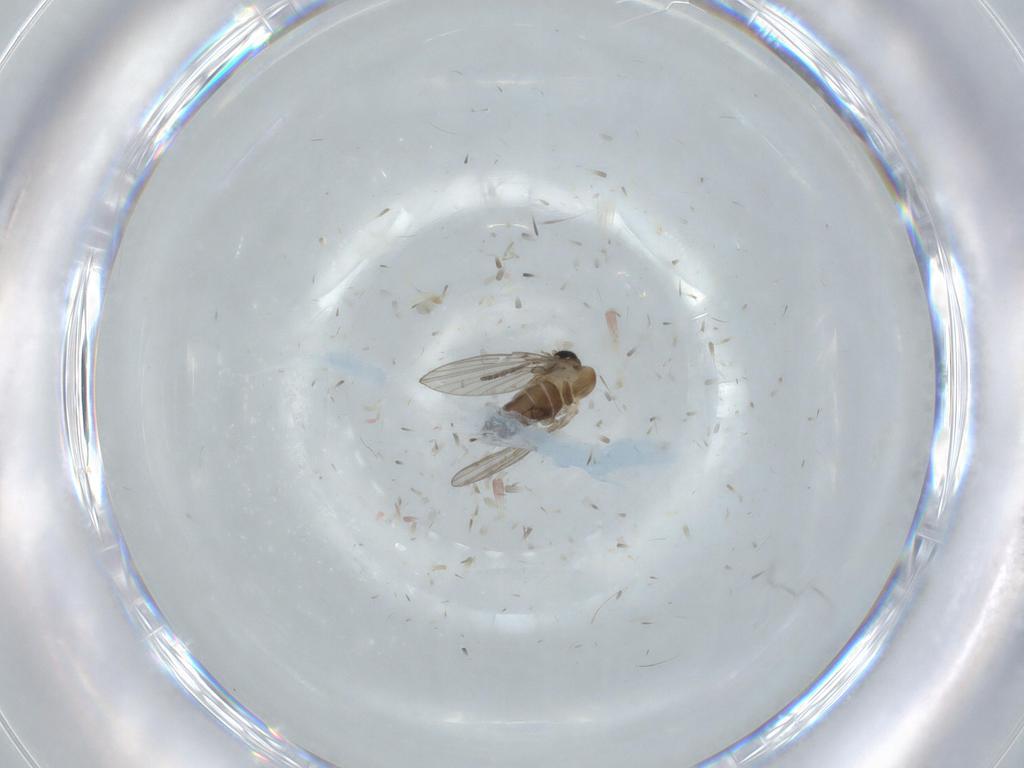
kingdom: Animalia
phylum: Arthropoda
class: Insecta
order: Diptera
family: Psychodidae
